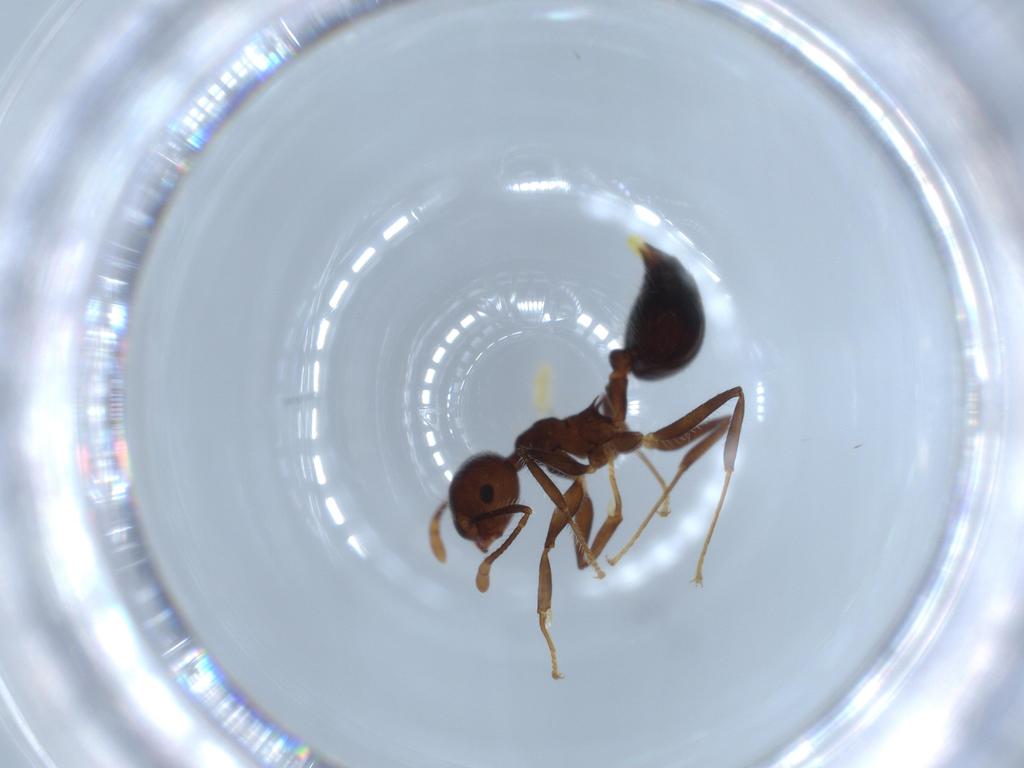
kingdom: Animalia
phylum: Arthropoda
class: Insecta
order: Hymenoptera
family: Formicidae
